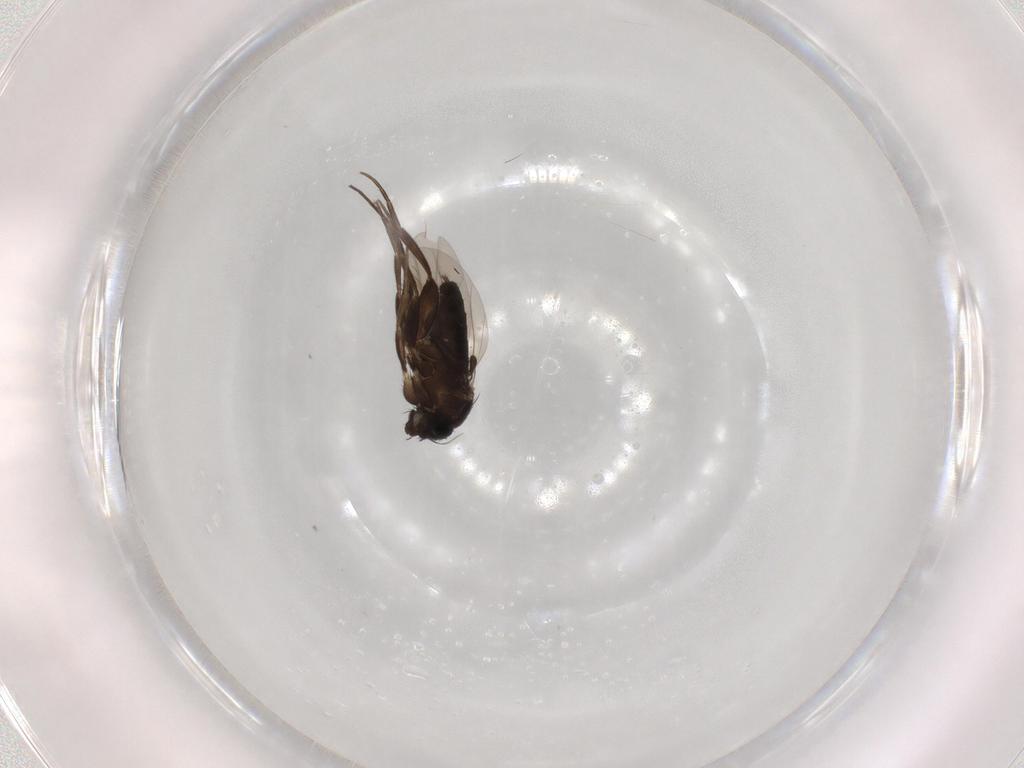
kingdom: Animalia
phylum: Arthropoda
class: Insecta
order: Diptera
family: Phoridae
